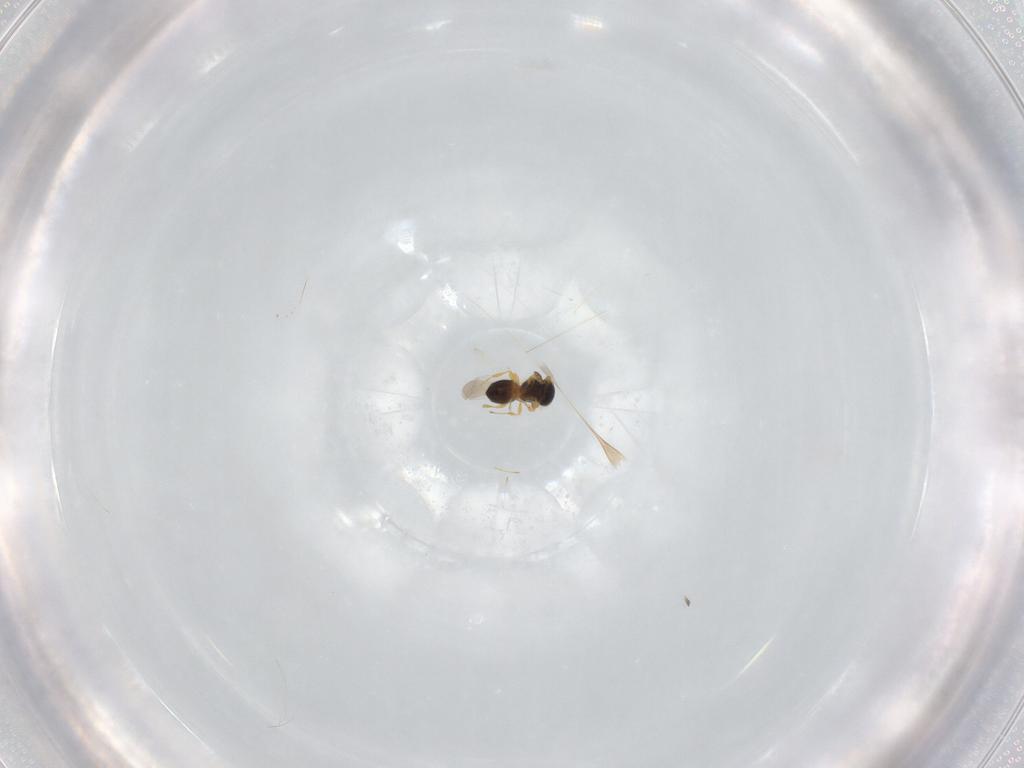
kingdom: Animalia
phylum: Arthropoda
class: Insecta
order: Hymenoptera
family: Platygastridae
